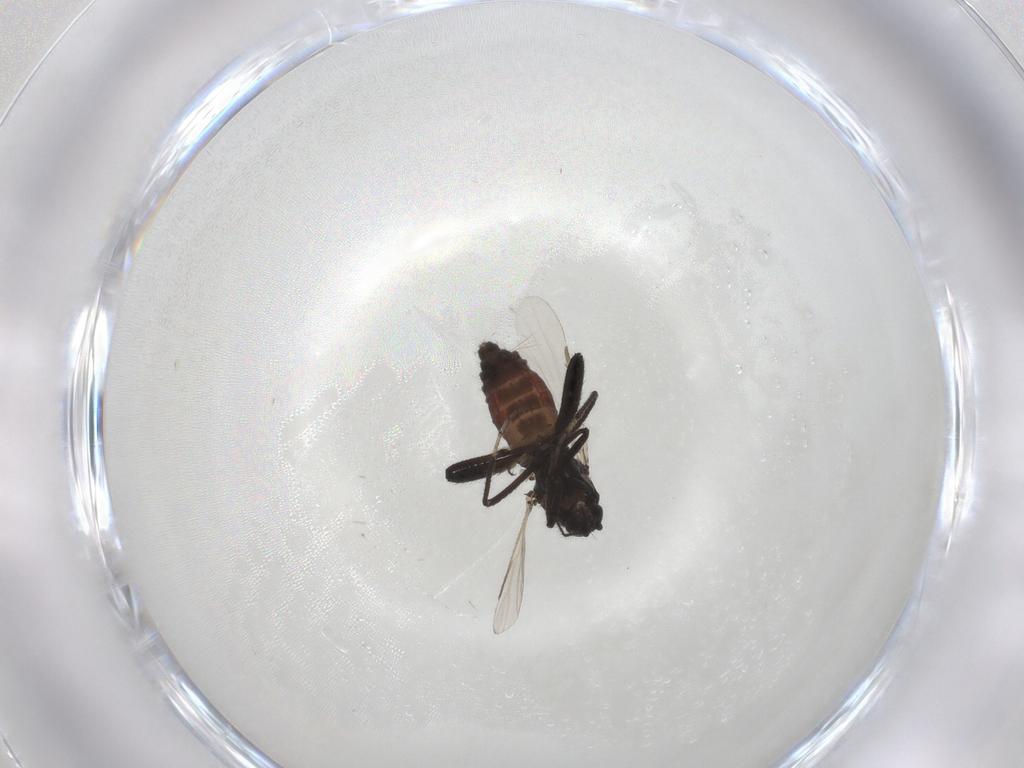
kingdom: Animalia
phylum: Arthropoda
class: Insecta
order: Diptera
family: Ceratopogonidae
